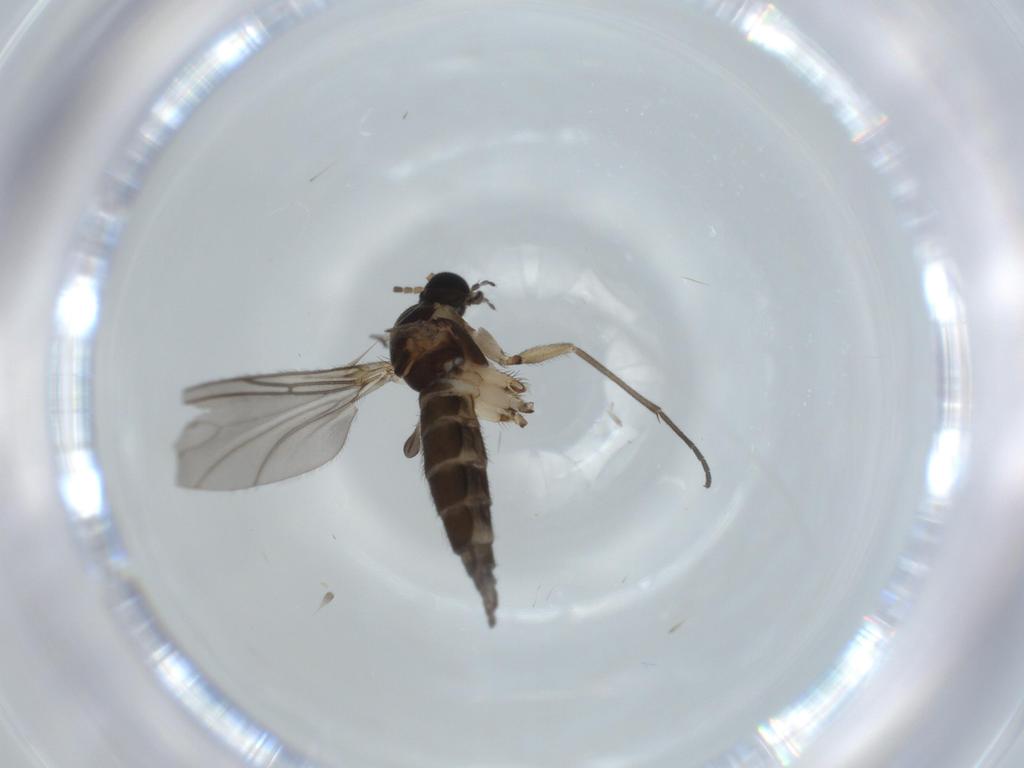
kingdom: Animalia
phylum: Arthropoda
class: Insecta
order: Diptera
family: Sciaridae
